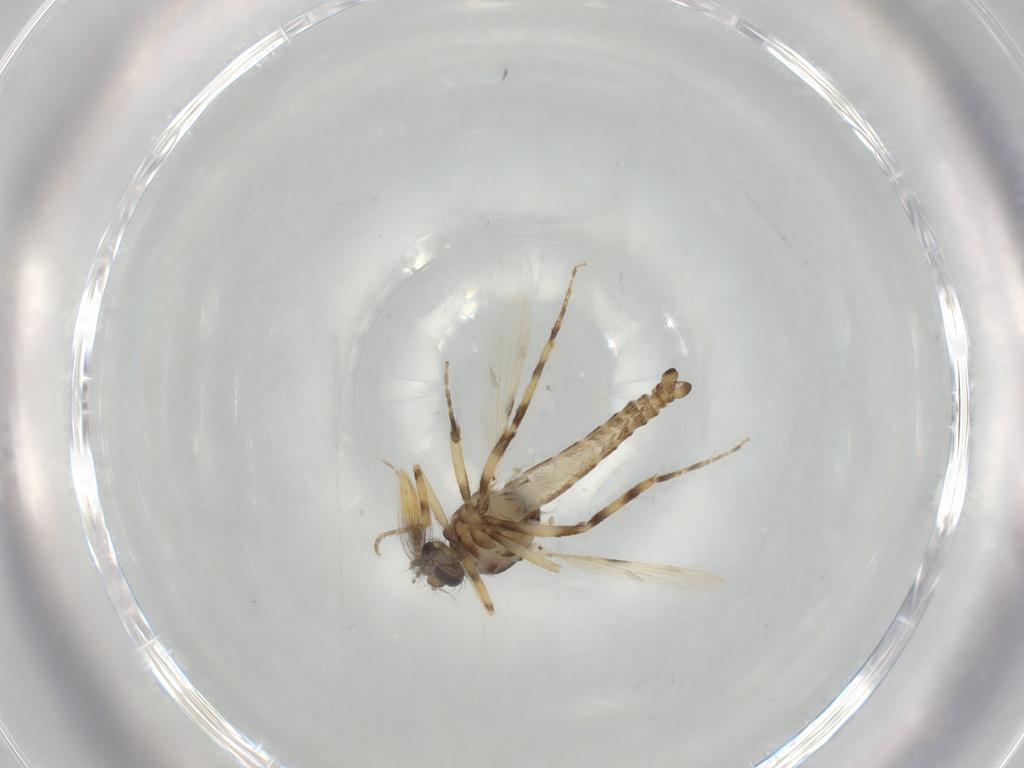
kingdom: Animalia
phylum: Arthropoda
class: Insecta
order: Diptera
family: Ceratopogonidae
